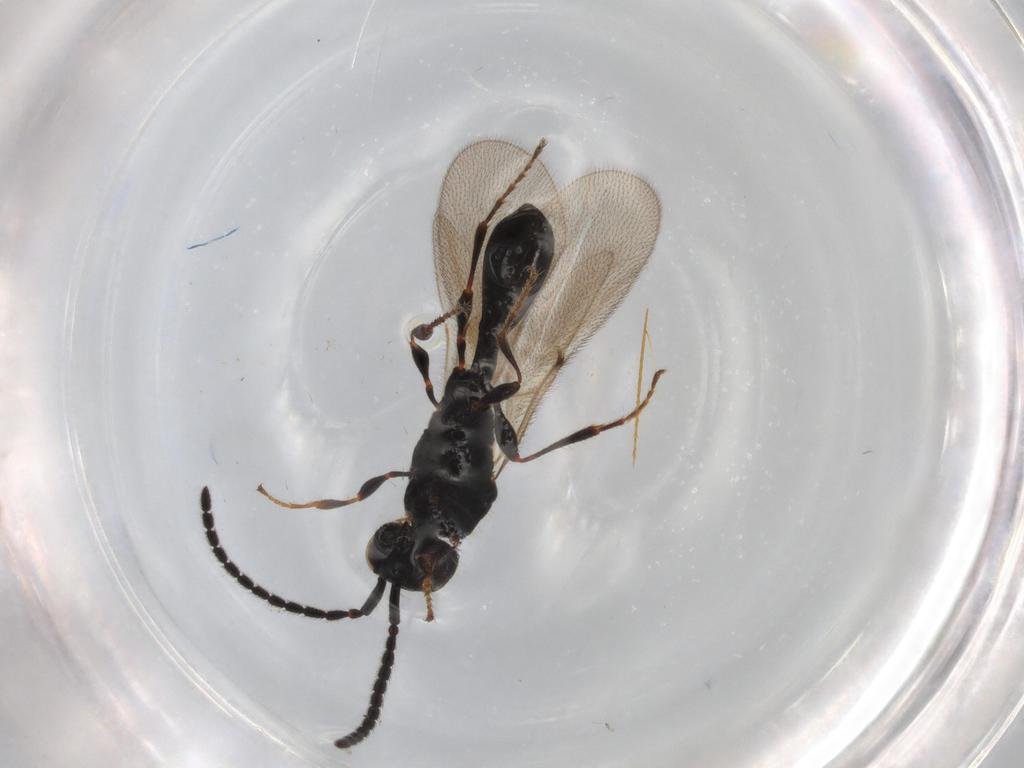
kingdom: Animalia
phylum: Arthropoda
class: Insecta
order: Hymenoptera
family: Diapriidae
